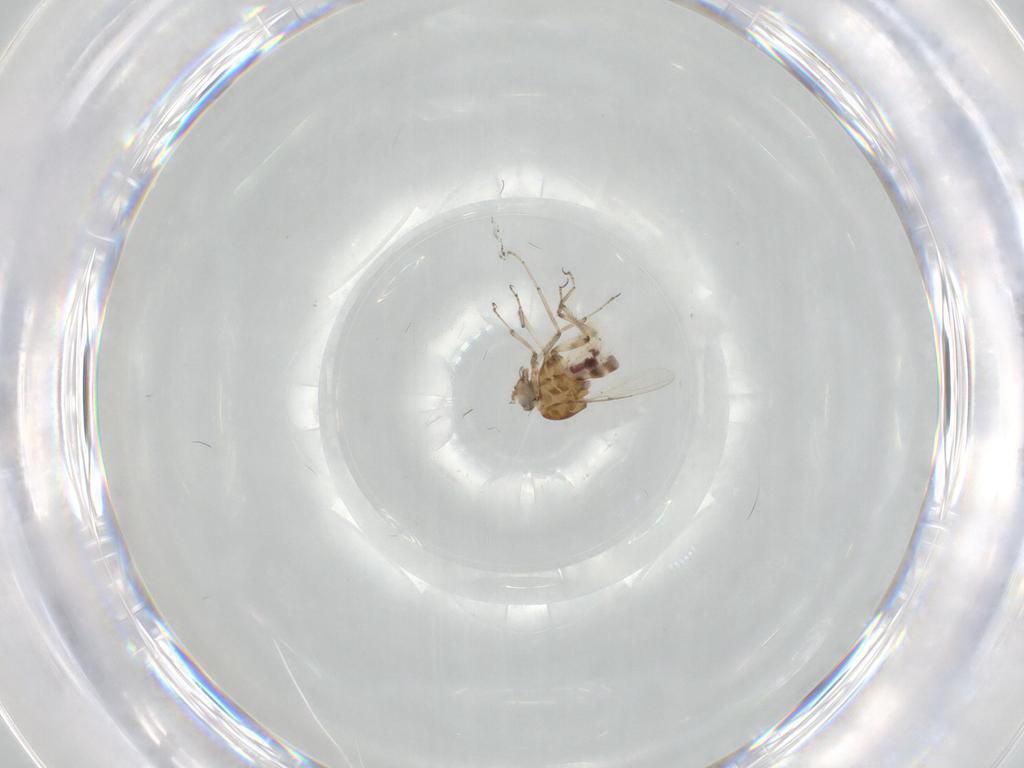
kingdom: Animalia
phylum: Arthropoda
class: Insecta
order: Diptera
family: Ceratopogonidae
